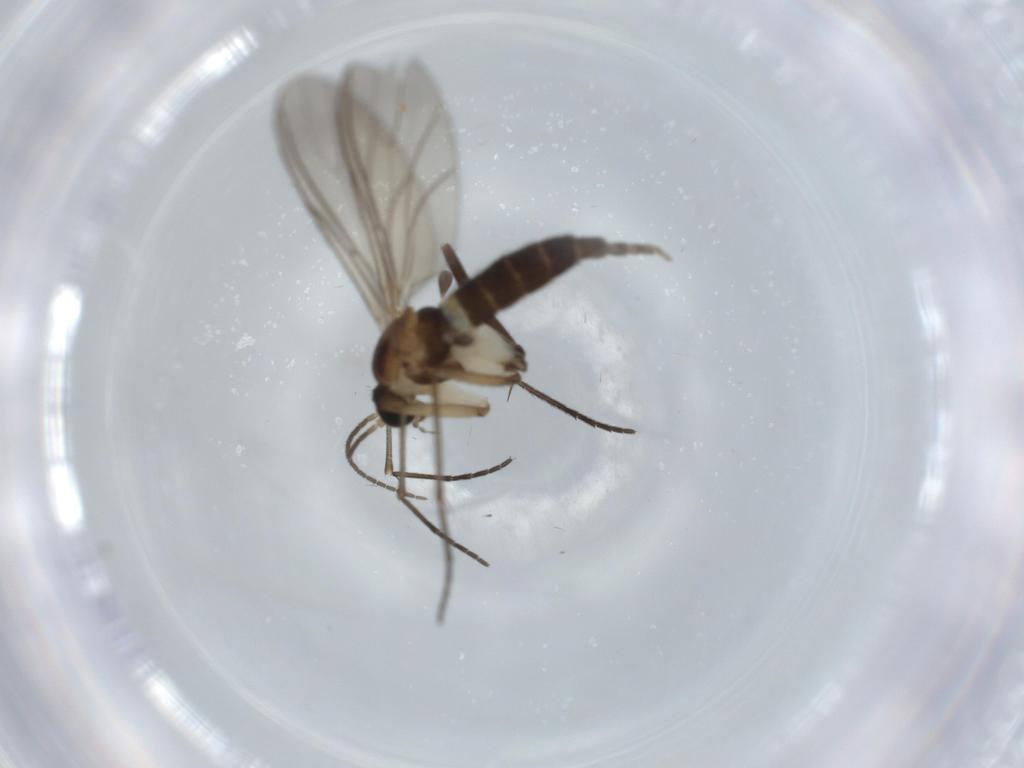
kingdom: Animalia
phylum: Arthropoda
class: Insecta
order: Diptera
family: Sciaridae
